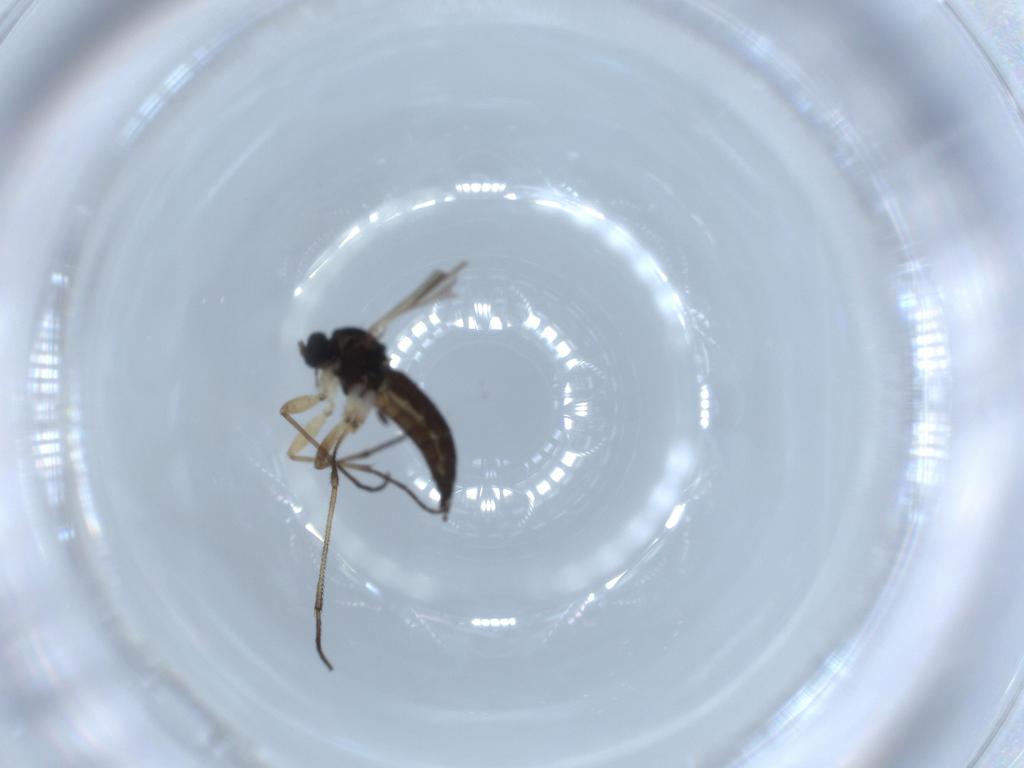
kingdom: Animalia
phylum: Arthropoda
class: Insecta
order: Diptera
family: Sciaridae
